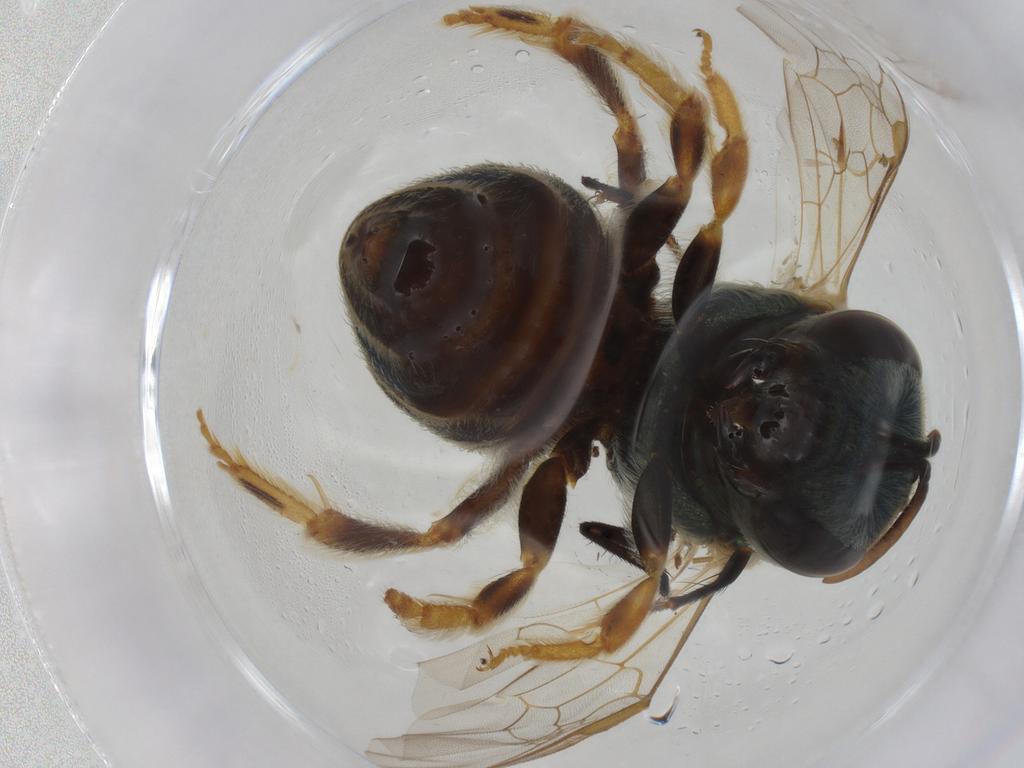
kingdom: Animalia
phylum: Arthropoda
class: Insecta
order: Hymenoptera
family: Halictidae
